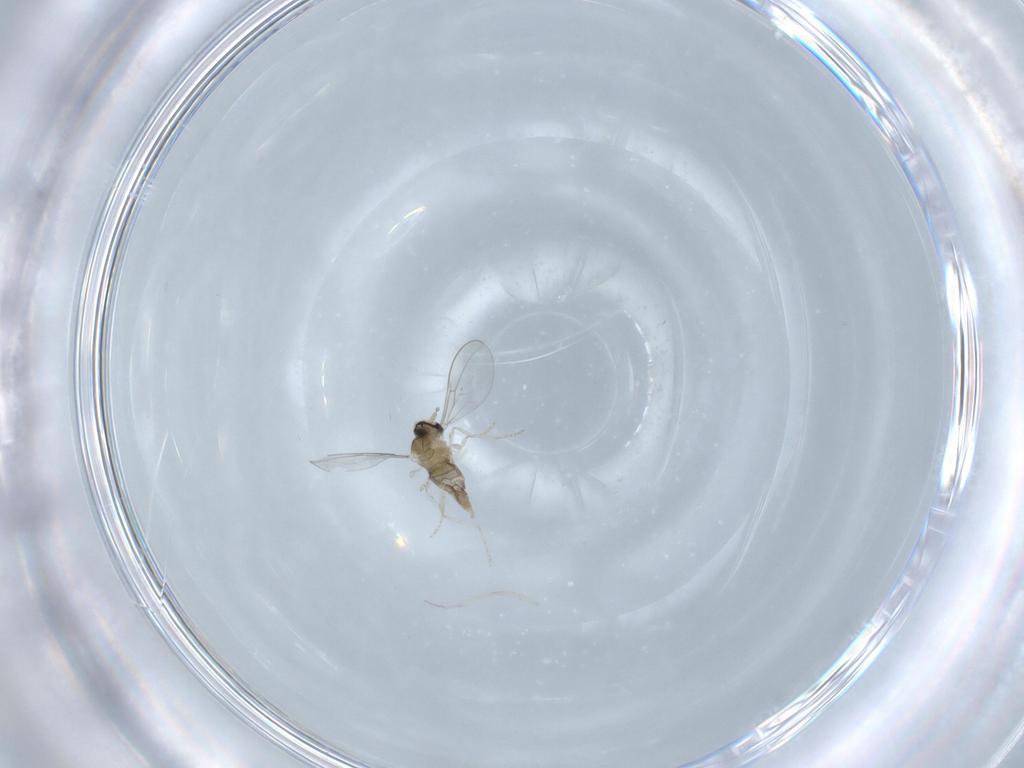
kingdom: Animalia
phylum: Arthropoda
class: Insecta
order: Diptera
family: Cecidomyiidae
